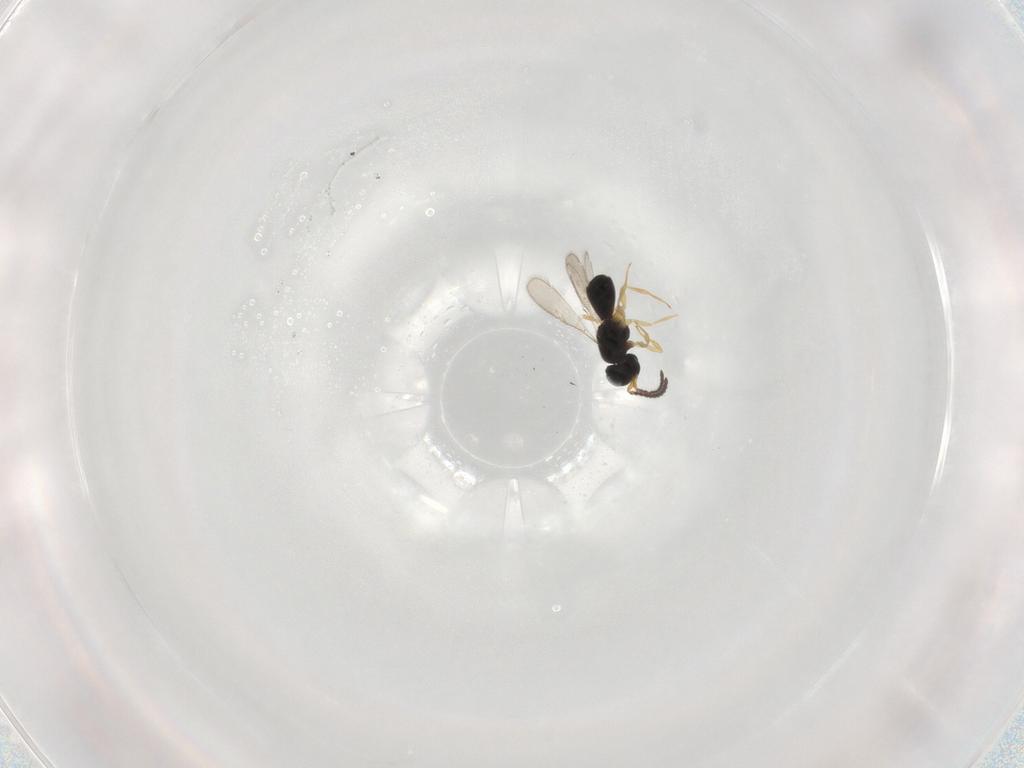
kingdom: Animalia
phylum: Arthropoda
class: Insecta
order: Hymenoptera
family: Scelionidae
